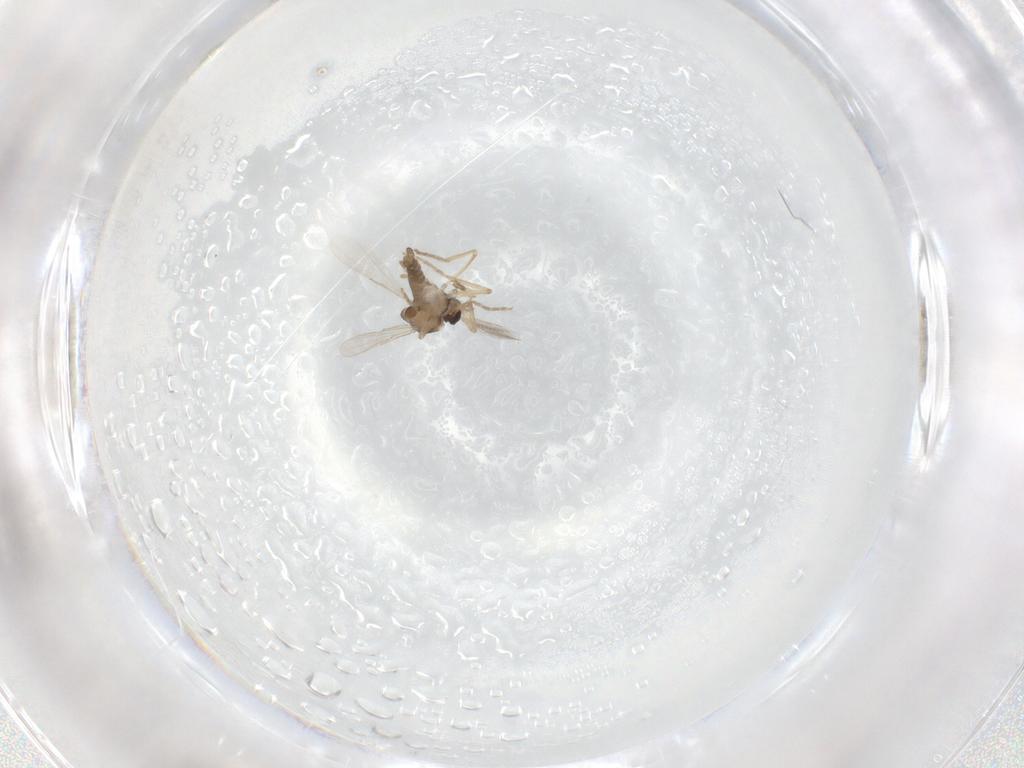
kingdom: Animalia
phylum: Arthropoda
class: Insecta
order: Diptera
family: Ceratopogonidae
